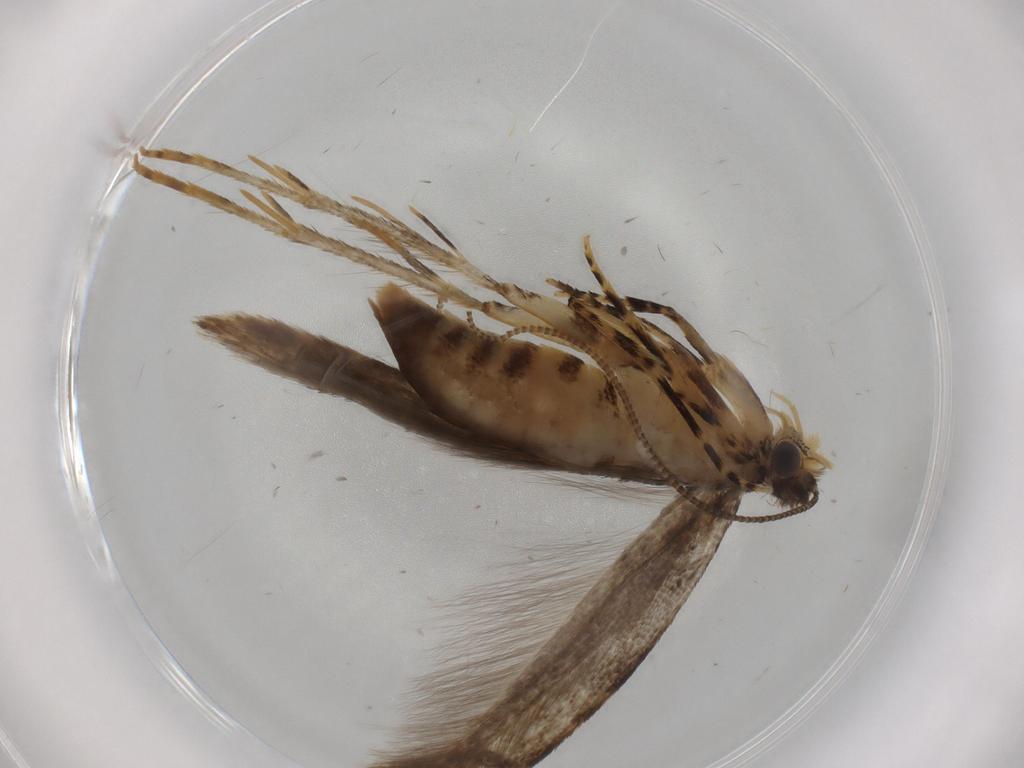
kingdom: Animalia
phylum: Arthropoda
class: Insecta
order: Lepidoptera
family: Tineidae
